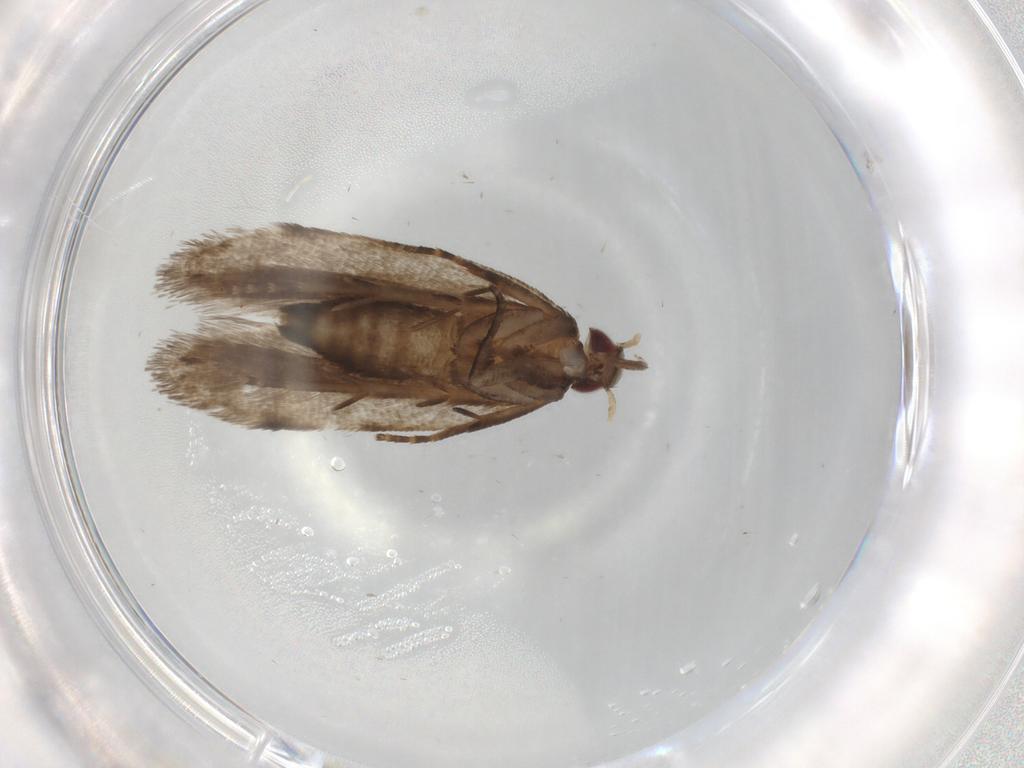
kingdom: Animalia
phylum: Arthropoda
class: Insecta
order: Lepidoptera
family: Gelechiidae
